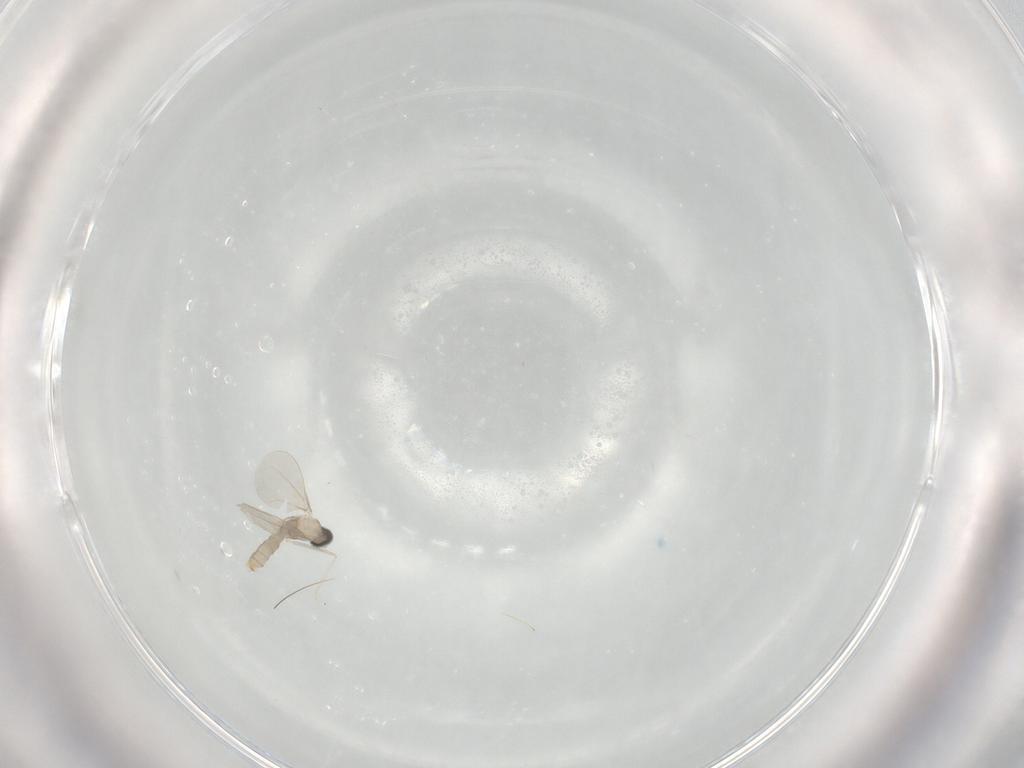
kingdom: Animalia
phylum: Arthropoda
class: Insecta
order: Diptera
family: Cecidomyiidae
